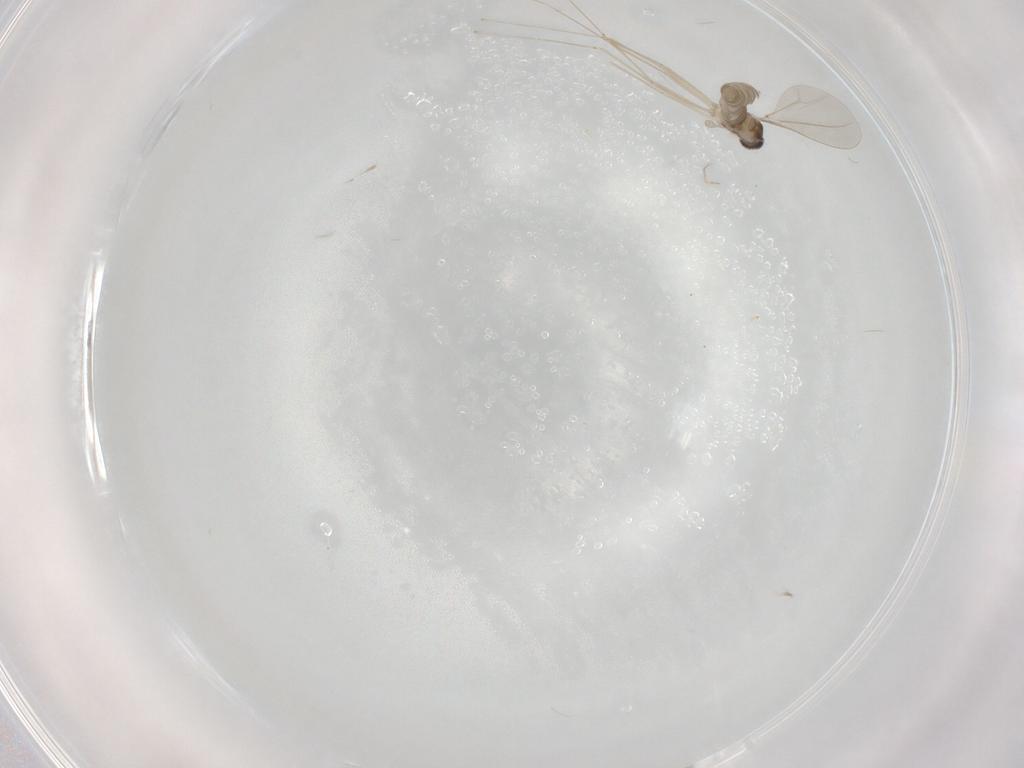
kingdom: Animalia
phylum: Arthropoda
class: Insecta
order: Diptera
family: Cecidomyiidae
